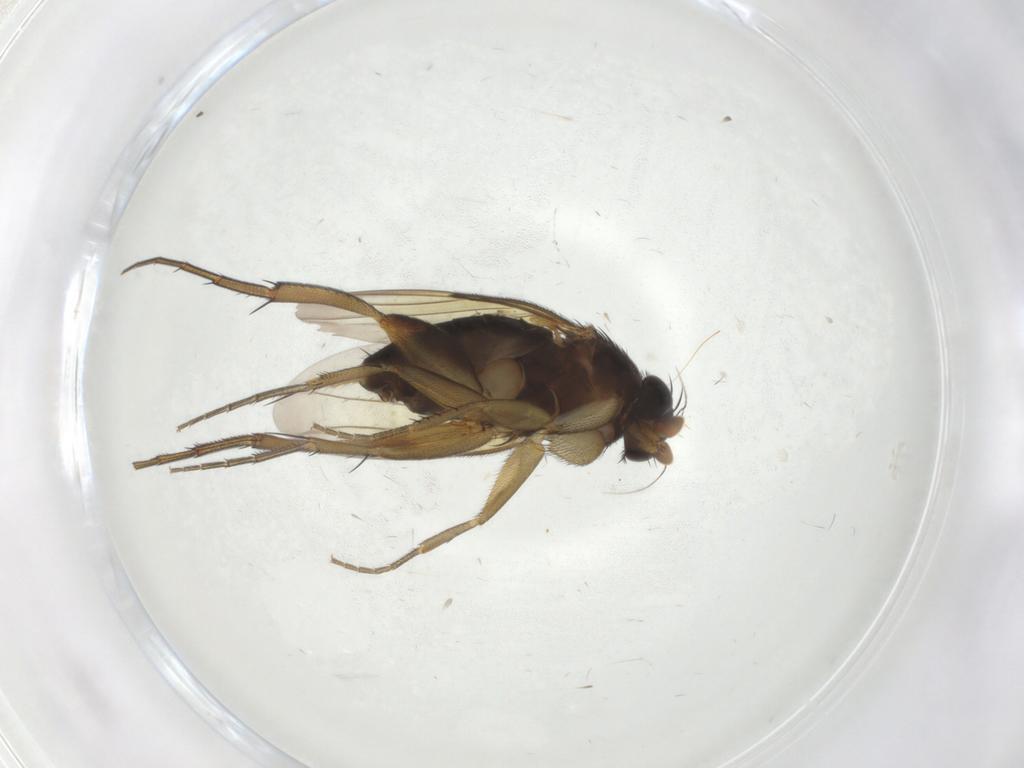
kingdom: Animalia
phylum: Arthropoda
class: Insecta
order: Diptera
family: Phoridae
